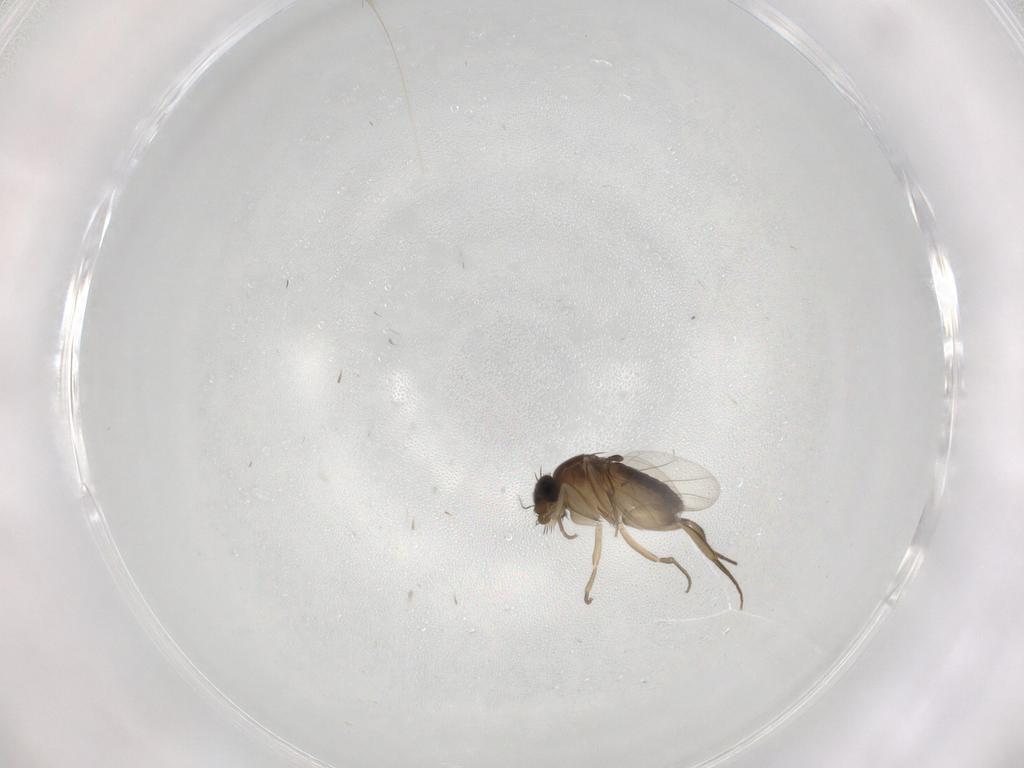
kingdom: Animalia
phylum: Arthropoda
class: Insecta
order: Diptera
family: Phoridae
